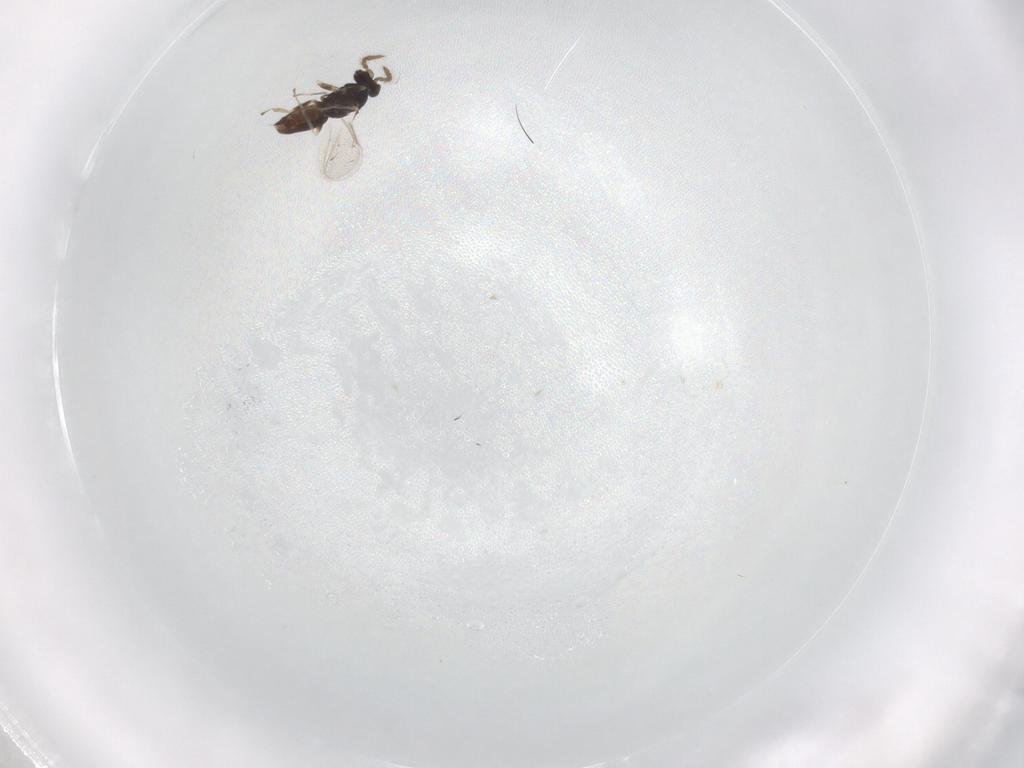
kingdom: Animalia
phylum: Arthropoda
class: Insecta
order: Hymenoptera
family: Eulophidae
